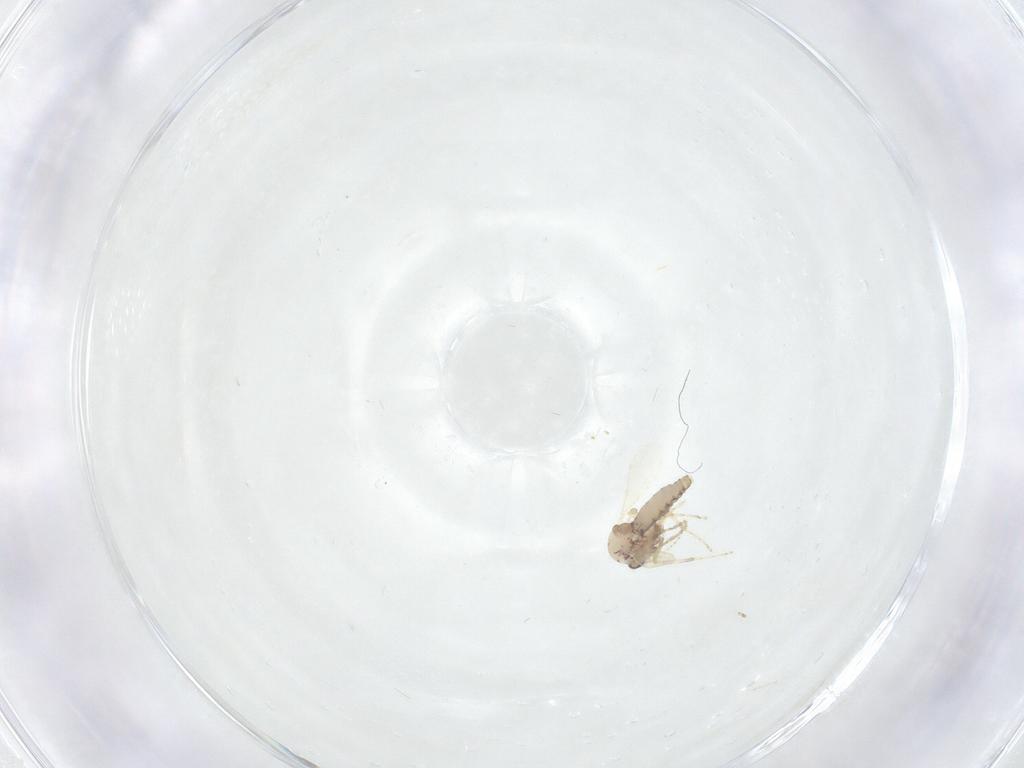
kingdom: Animalia
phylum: Arthropoda
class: Insecta
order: Diptera
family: Ceratopogonidae
